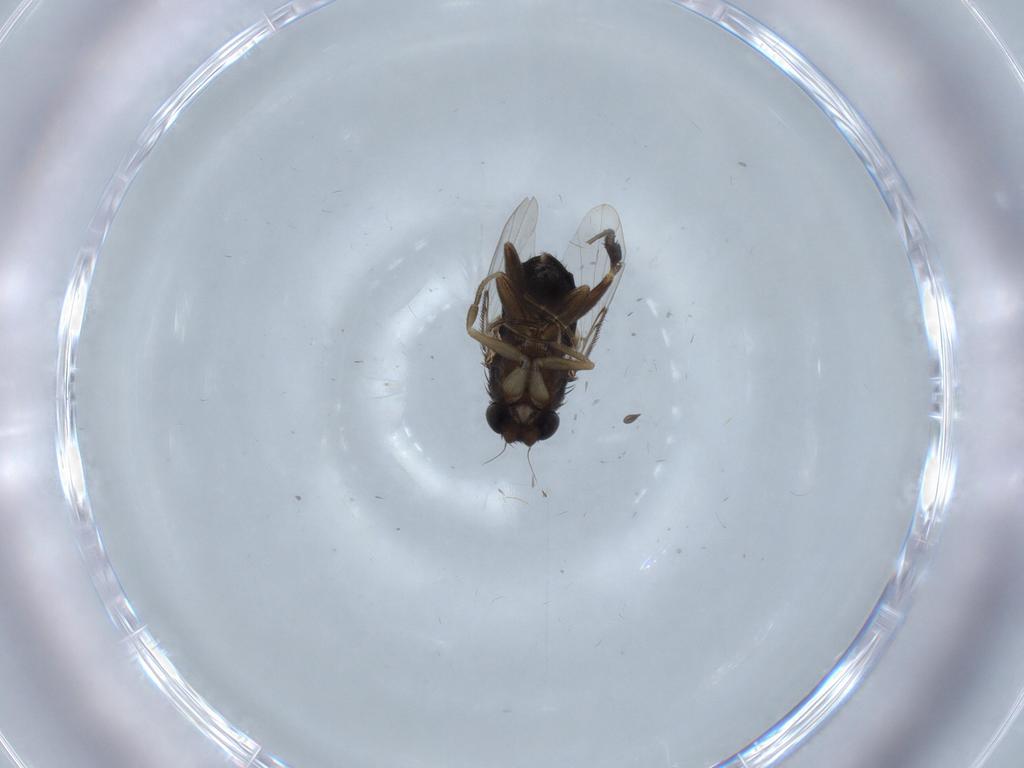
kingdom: Animalia
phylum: Arthropoda
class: Insecta
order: Diptera
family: Phoridae
